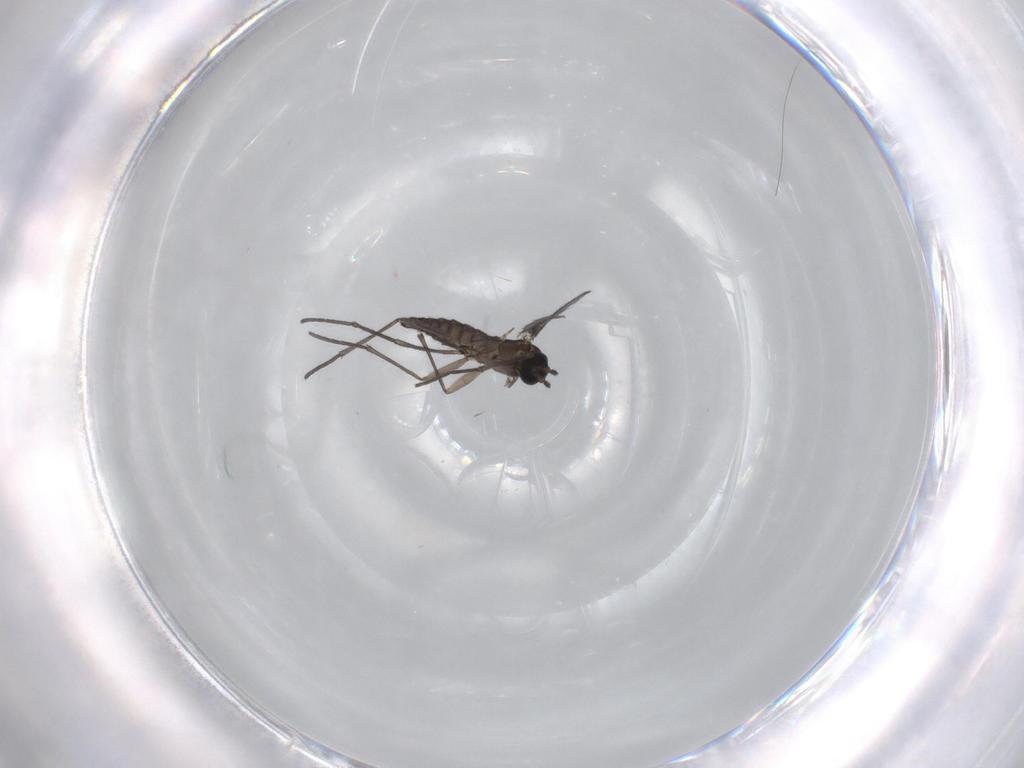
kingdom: Animalia
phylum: Arthropoda
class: Insecta
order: Diptera
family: Sciaridae
